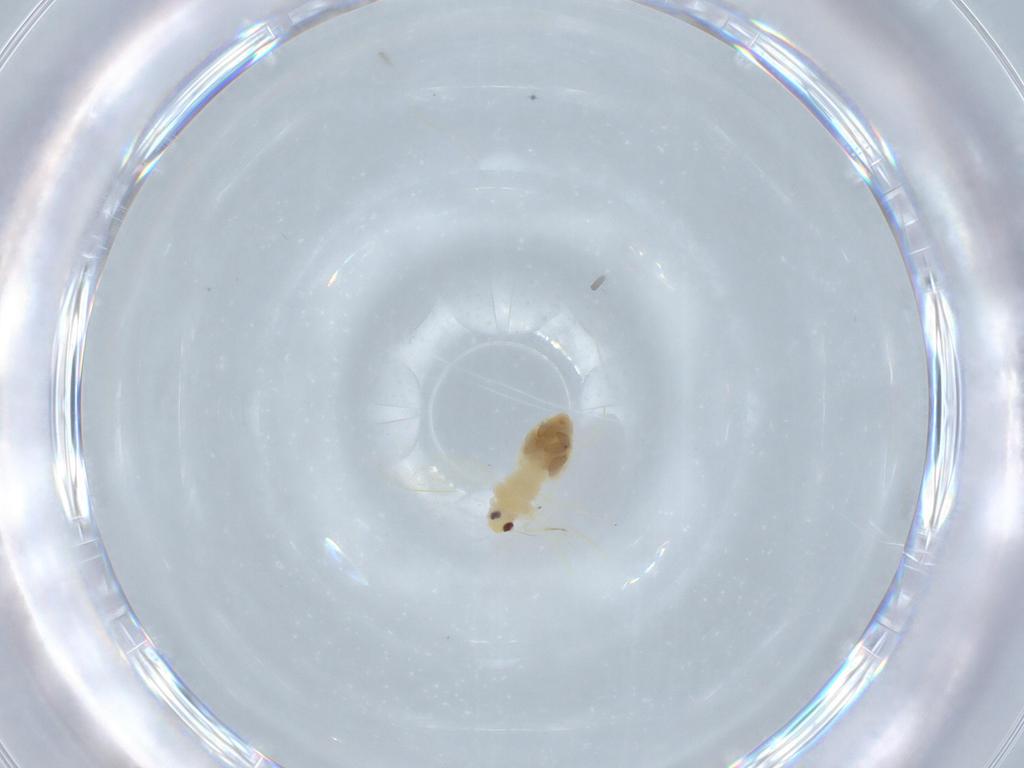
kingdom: Animalia
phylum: Arthropoda
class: Insecta
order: Hemiptera
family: Aleyrodidae
